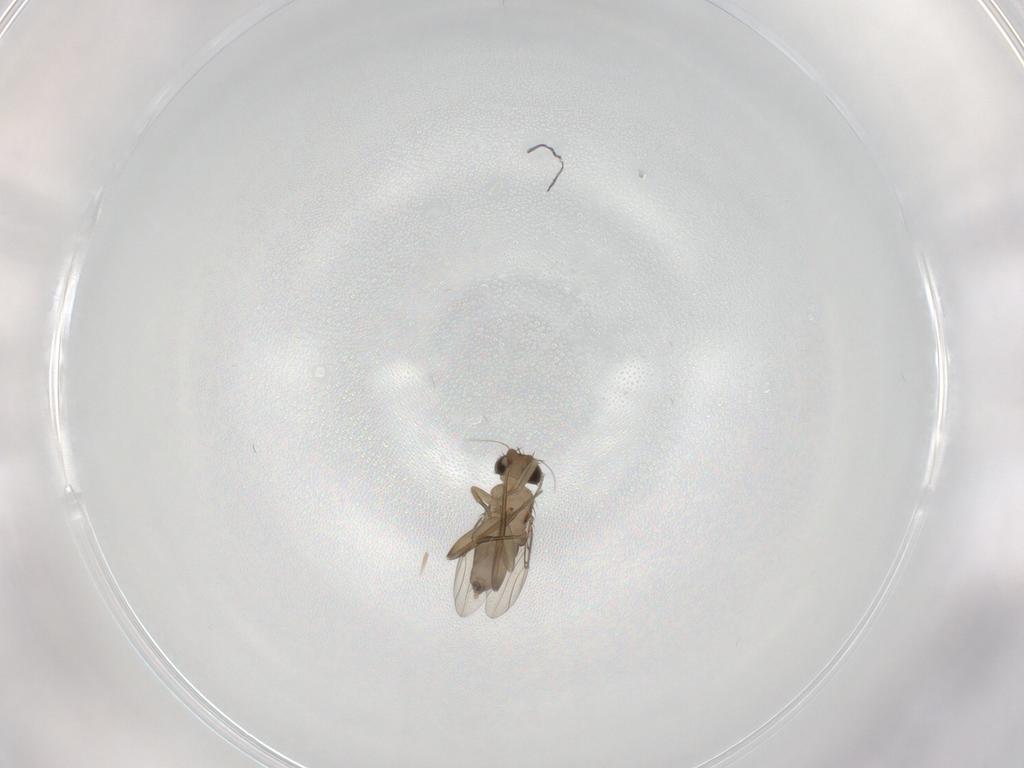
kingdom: Animalia
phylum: Arthropoda
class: Insecta
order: Diptera
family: Phoridae
